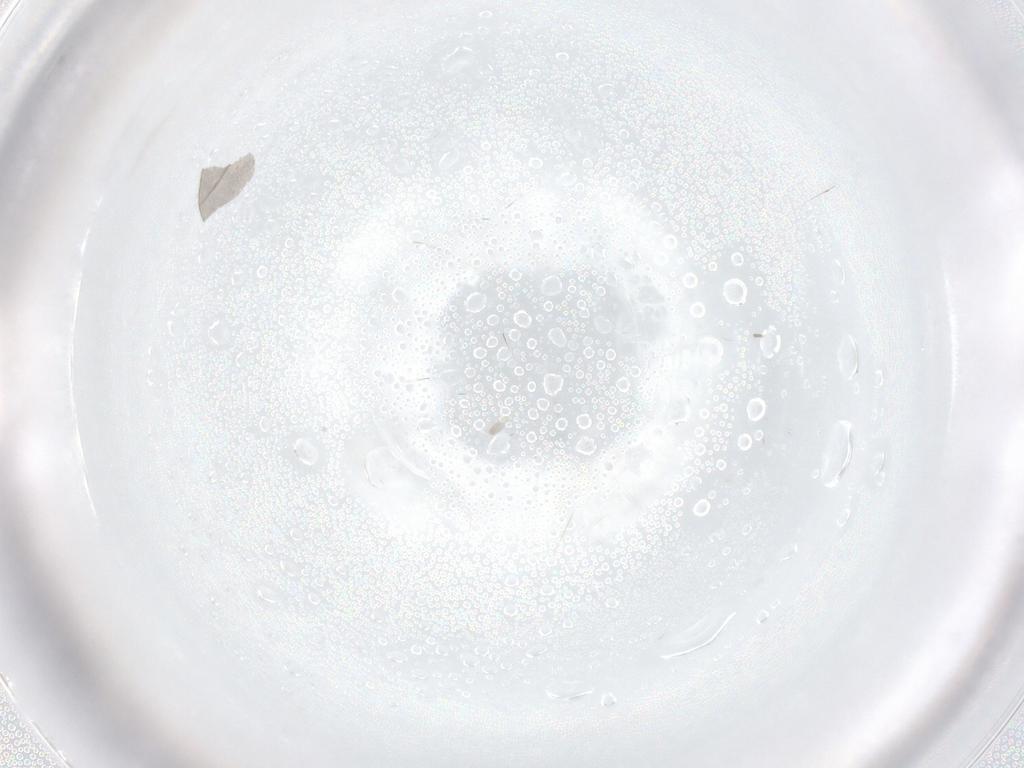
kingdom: Animalia
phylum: Arthropoda
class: Insecta
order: Diptera
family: Cecidomyiidae
